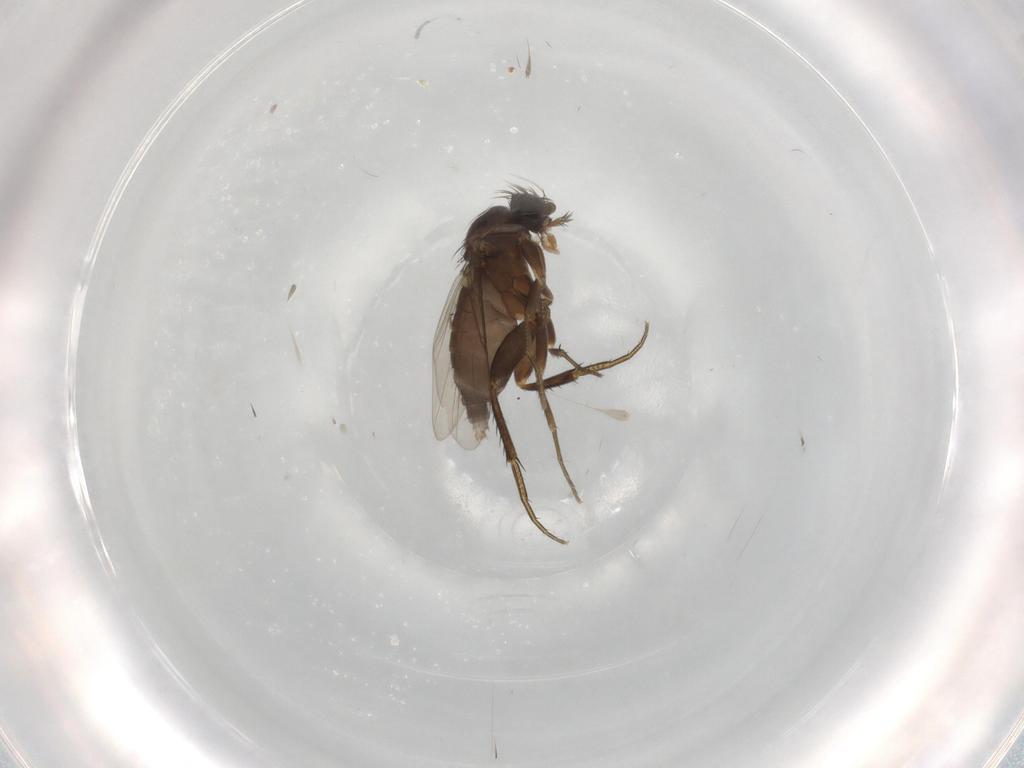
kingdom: Animalia
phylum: Arthropoda
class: Insecta
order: Diptera
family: Phoridae
